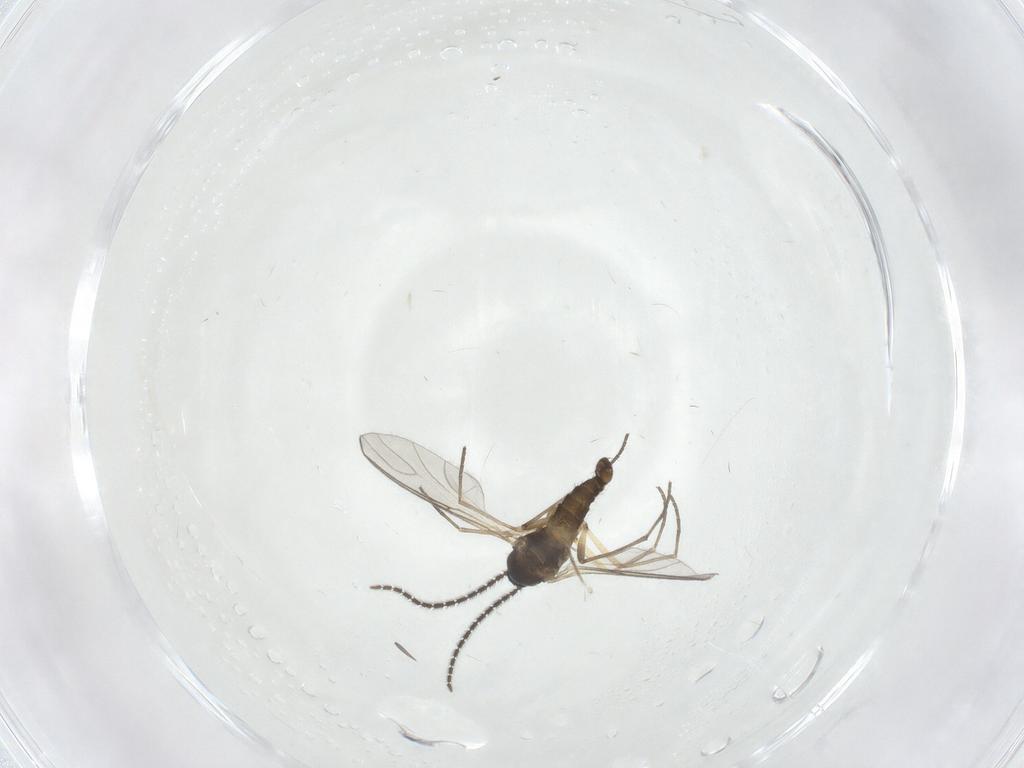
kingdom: Animalia
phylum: Arthropoda
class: Insecta
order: Diptera
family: Sciaridae
